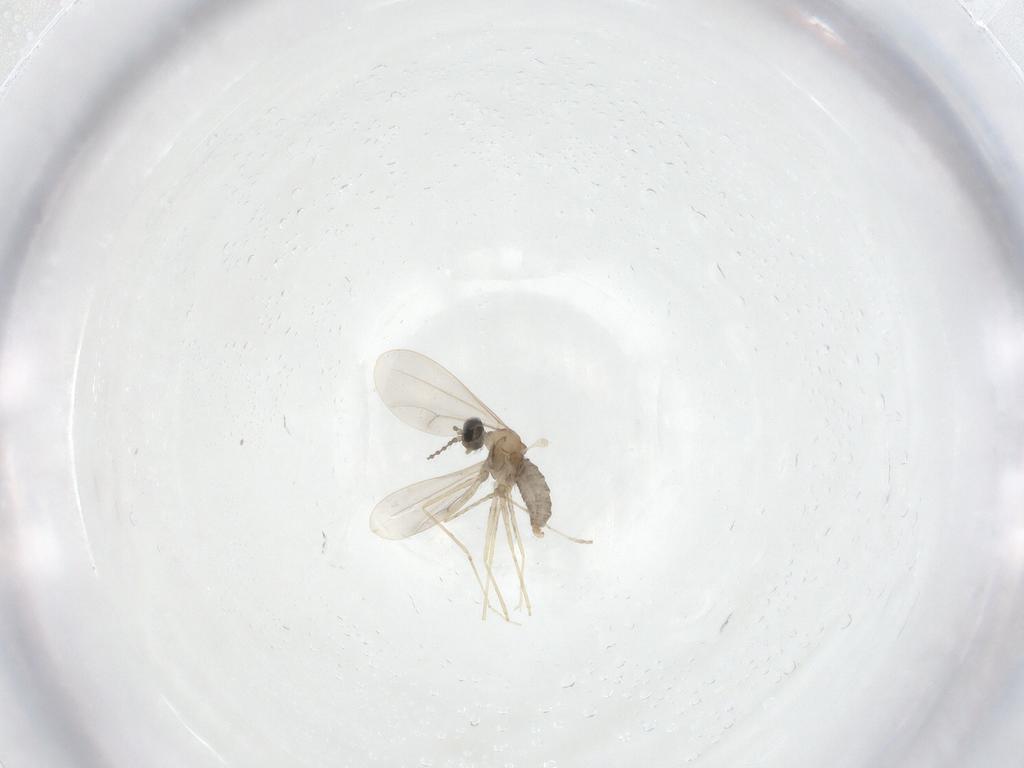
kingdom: Animalia
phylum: Arthropoda
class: Insecta
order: Diptera
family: Cecidomyiidae
